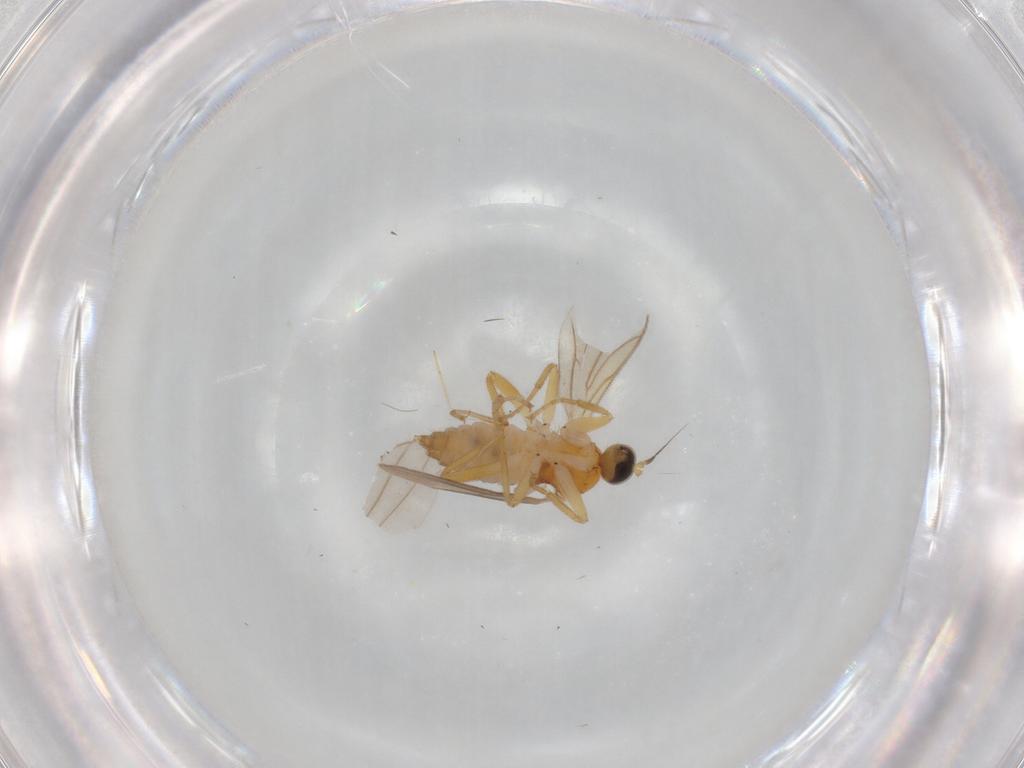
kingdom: Animalia
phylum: Arthropoda
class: Insecta
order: Diptera
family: Hybotidae
